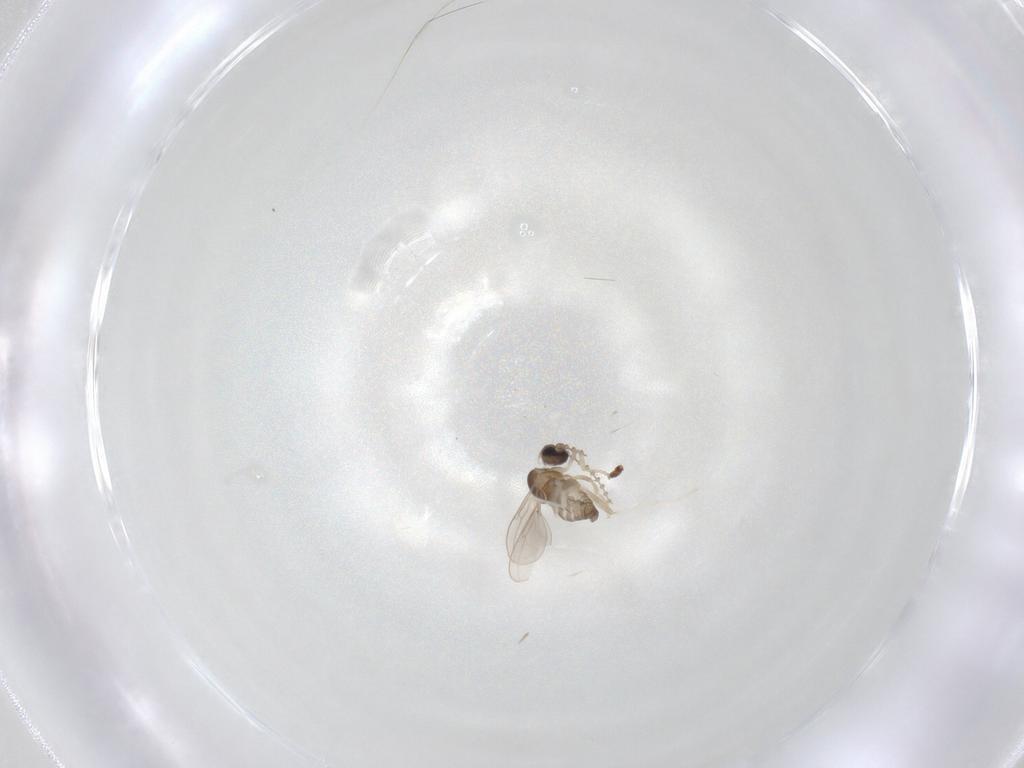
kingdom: Animalia
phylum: Arthropoda
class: Insecta
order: Diptera
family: Cecidomyiidae
